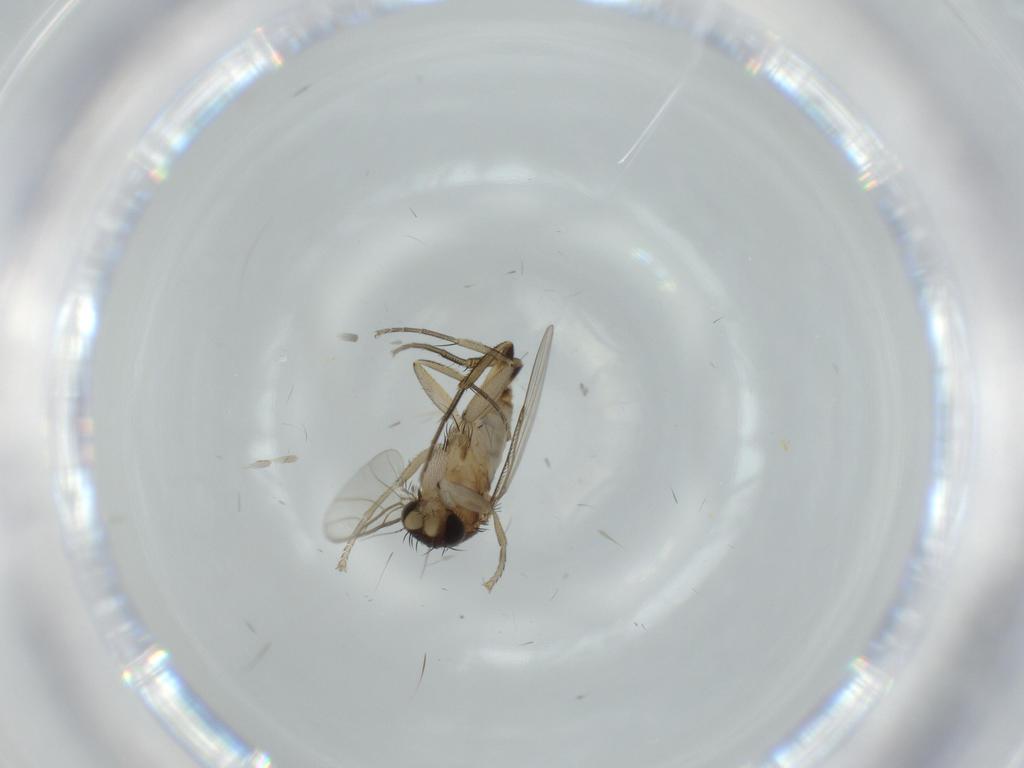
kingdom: Animalia
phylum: Arthropoda
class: Insecta
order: Diptera
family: Phoridae
